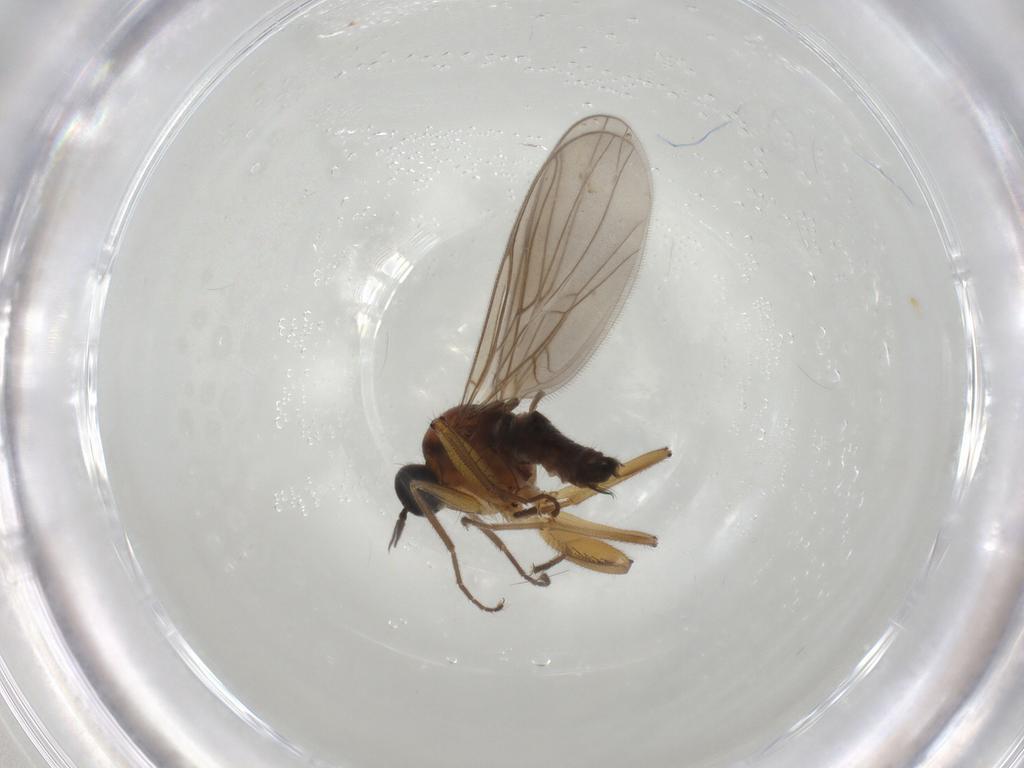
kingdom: Animalia
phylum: Arthropoda
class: Insecta
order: Diptera
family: Hybotidae
